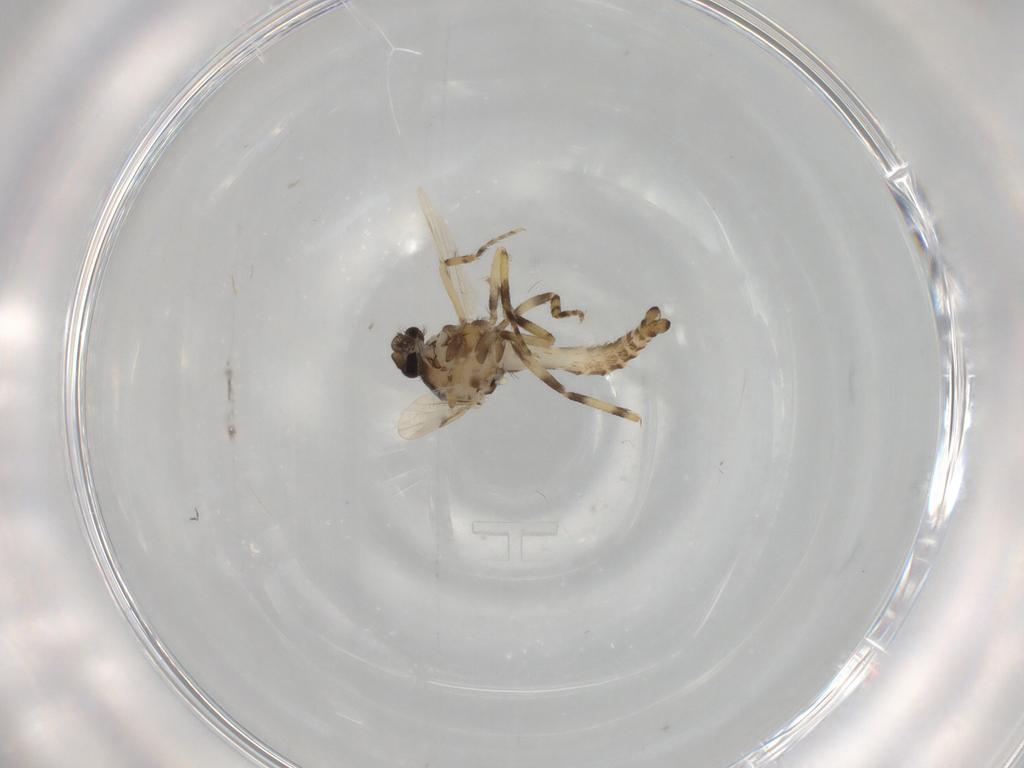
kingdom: Animalia
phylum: Arthropoda
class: Insecta
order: Diptera
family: Ceratopogonidae
